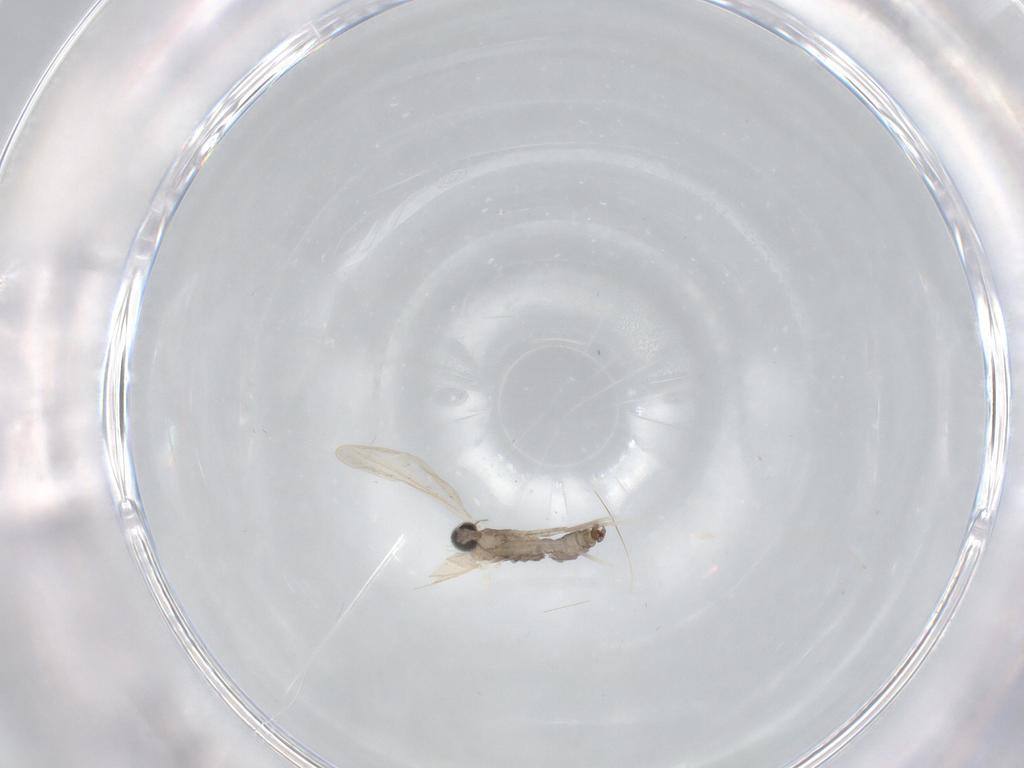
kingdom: Animalia
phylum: Arthropoda
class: Insecta
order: Diptera
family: Cecidomyiidae
